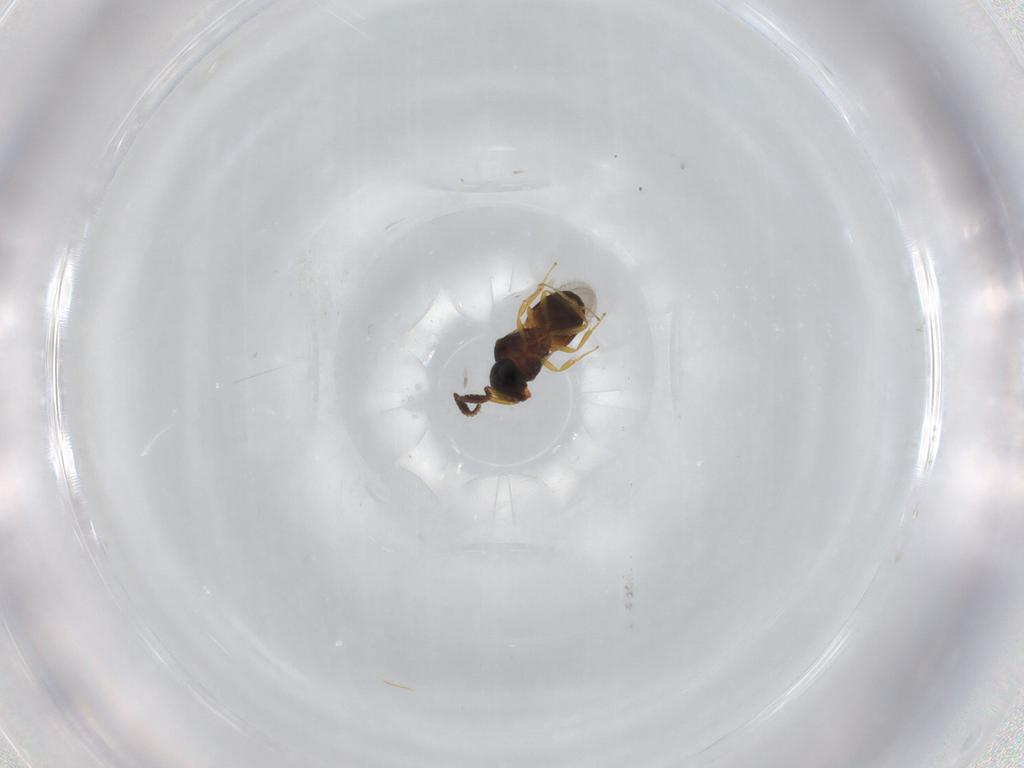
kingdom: Animalia
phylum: Arthropoda
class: Insecta
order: Hymenoptera
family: Scelionidae
